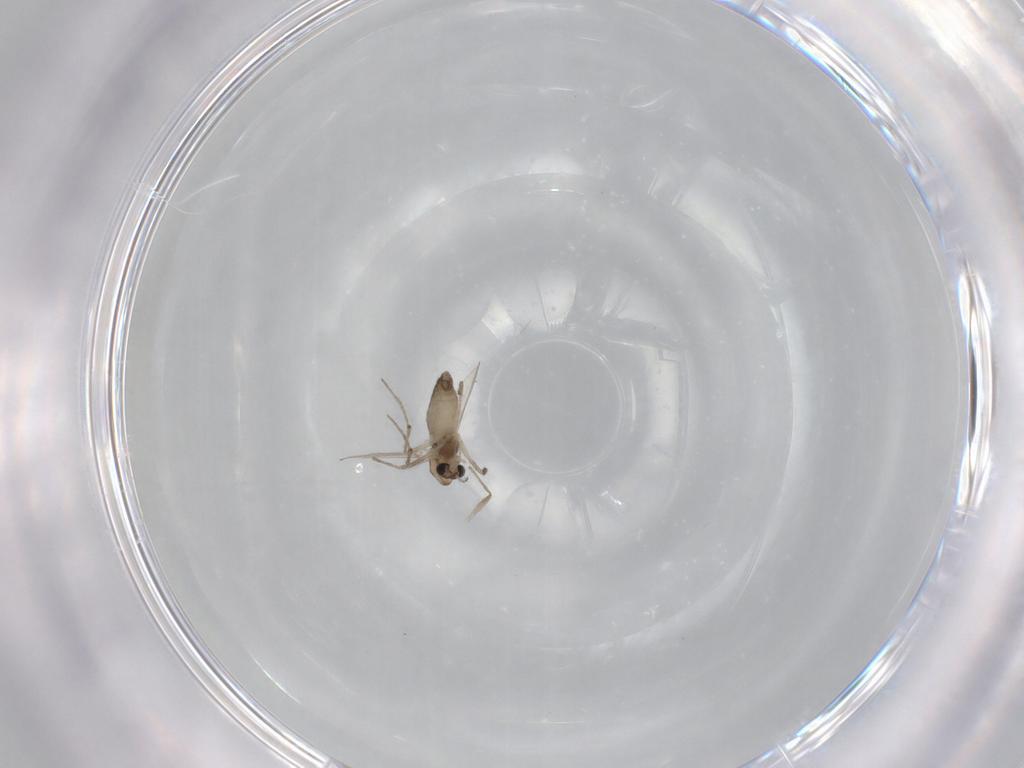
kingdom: Animalia
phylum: Arthropoda
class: Insecta
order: Diptera
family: Chironomidae
